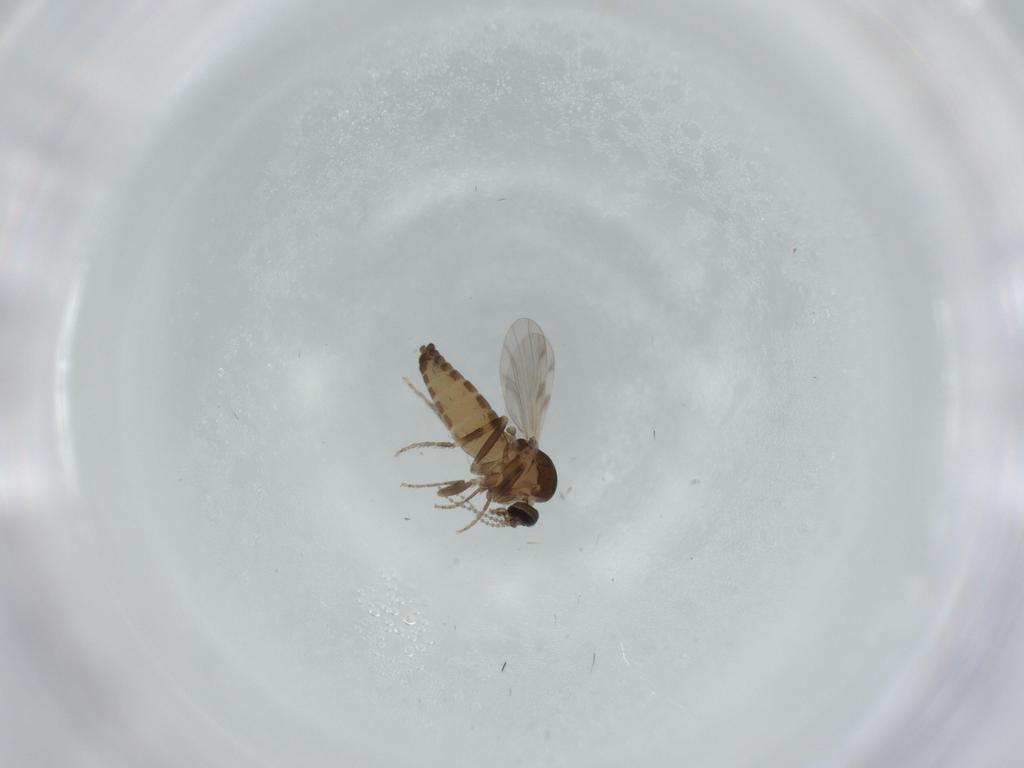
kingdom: Animalia
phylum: Arthropoda
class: Insecta
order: Diptera
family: Ceratopogonidae
